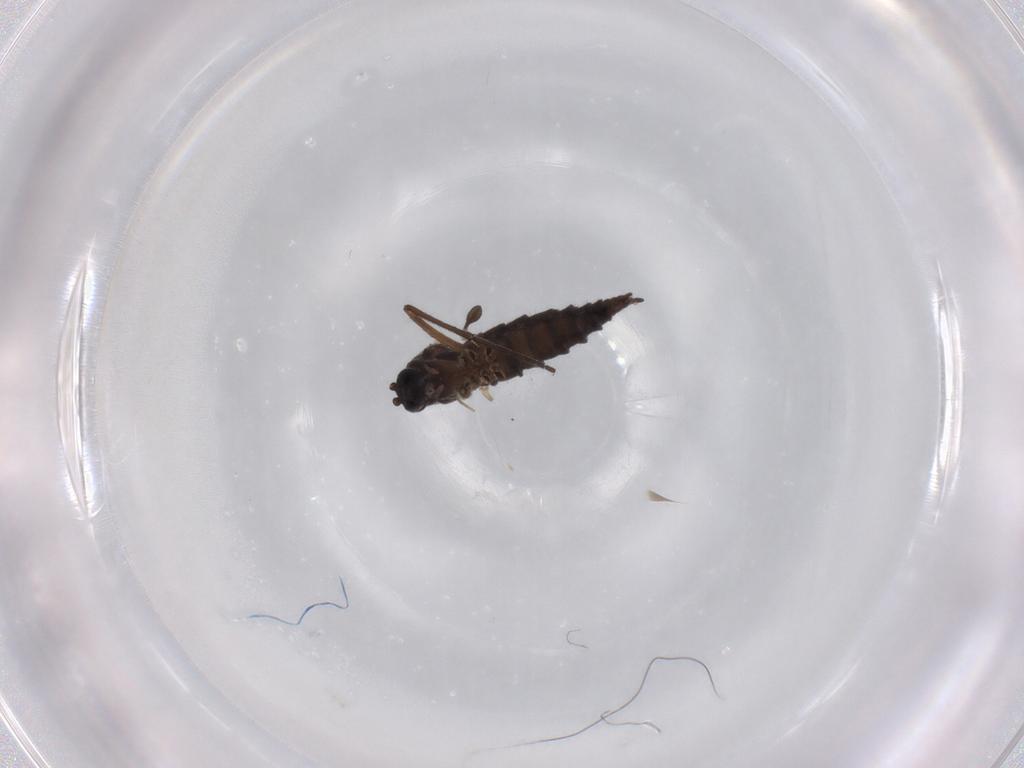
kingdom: Animalia
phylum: Arthropoda
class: Insecta
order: Diptera
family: Sciaridae
